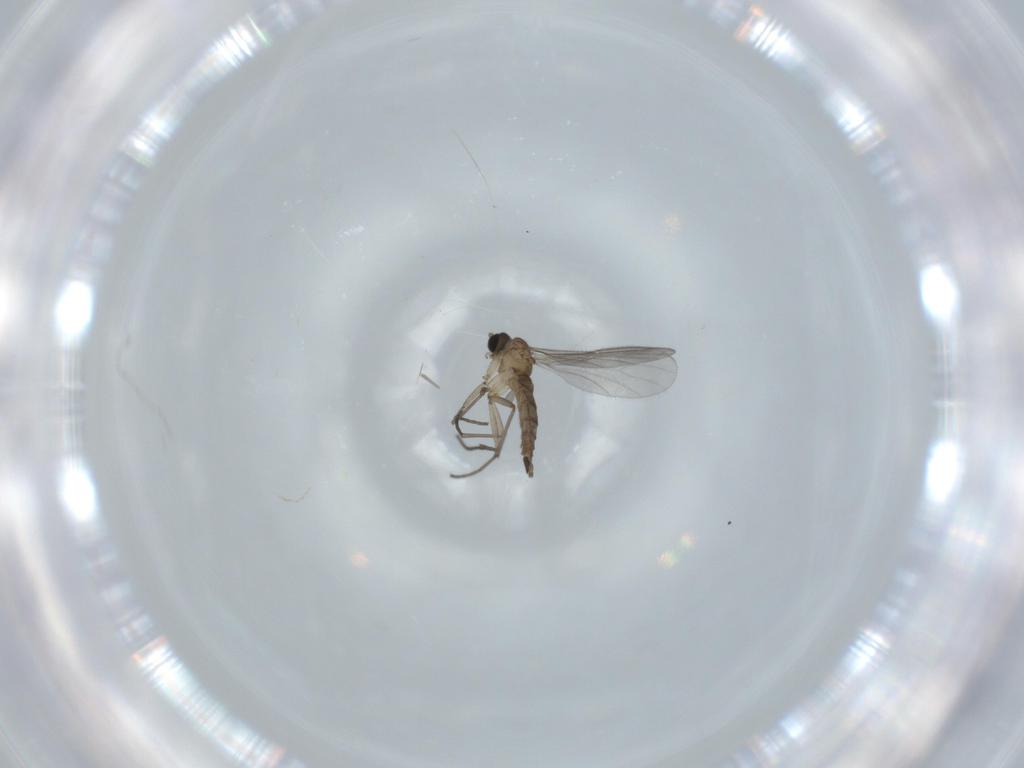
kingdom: Animalia
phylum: Arthropoda
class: Insecta
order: Diptera
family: Sciaridae
